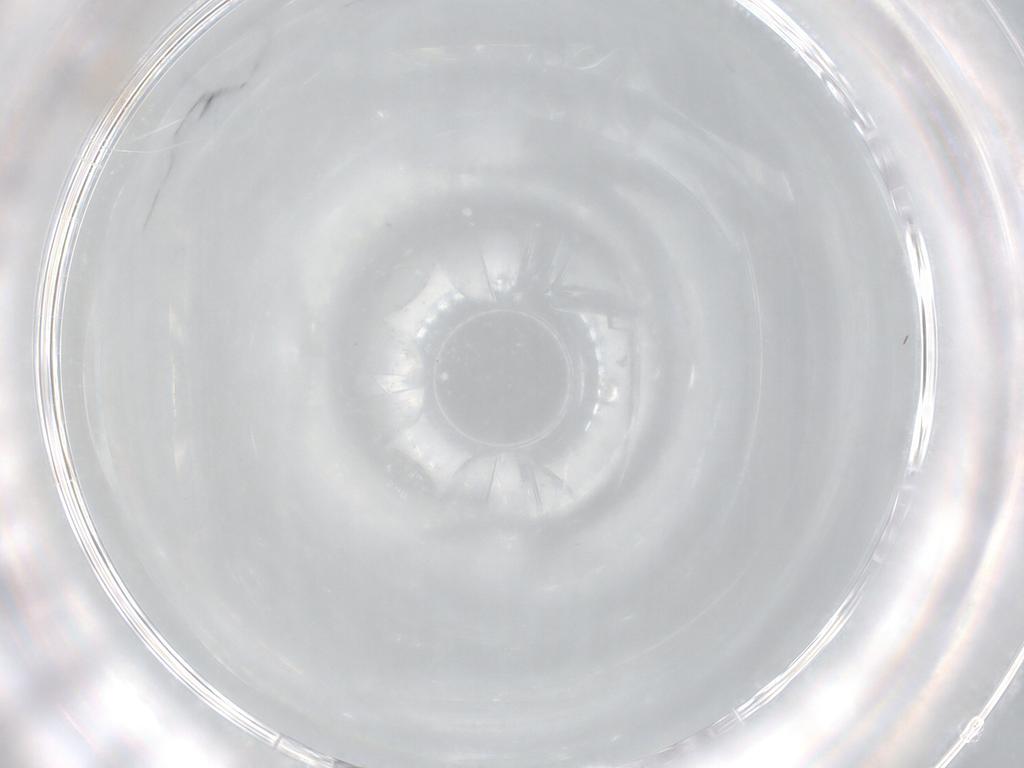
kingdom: Animalia
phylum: Arthropoda
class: Insecta
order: Diptera
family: Cecidomyiidae
